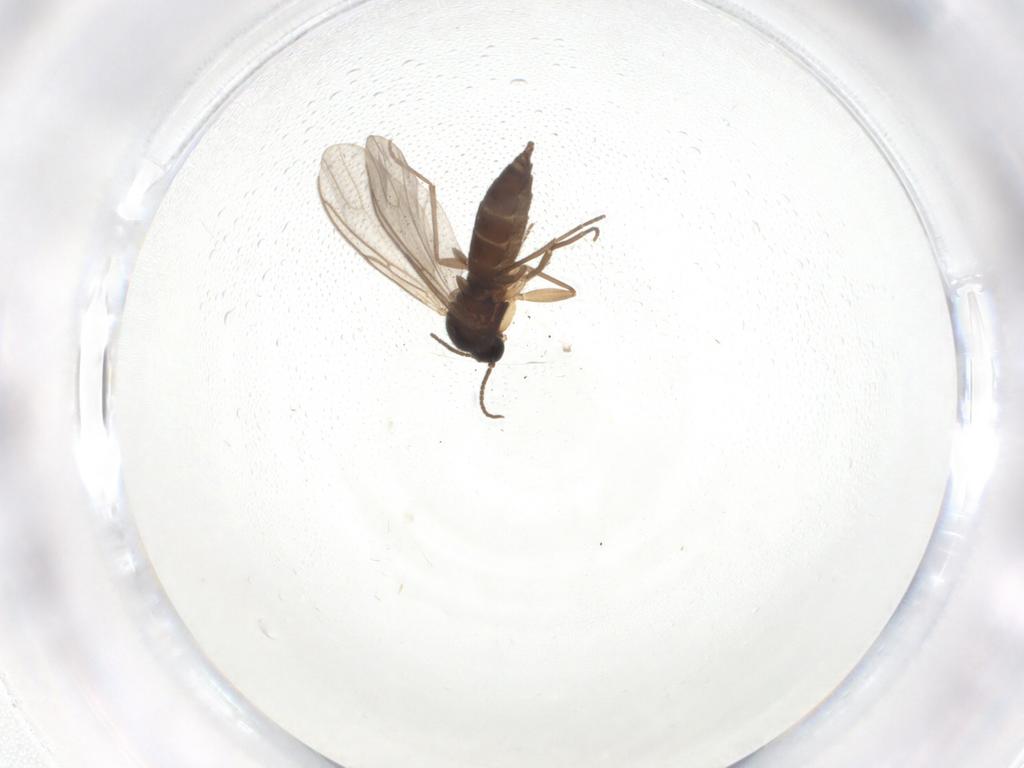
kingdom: Animalia
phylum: Arthropoda
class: Insecta
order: Diptera
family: Sciaridae
